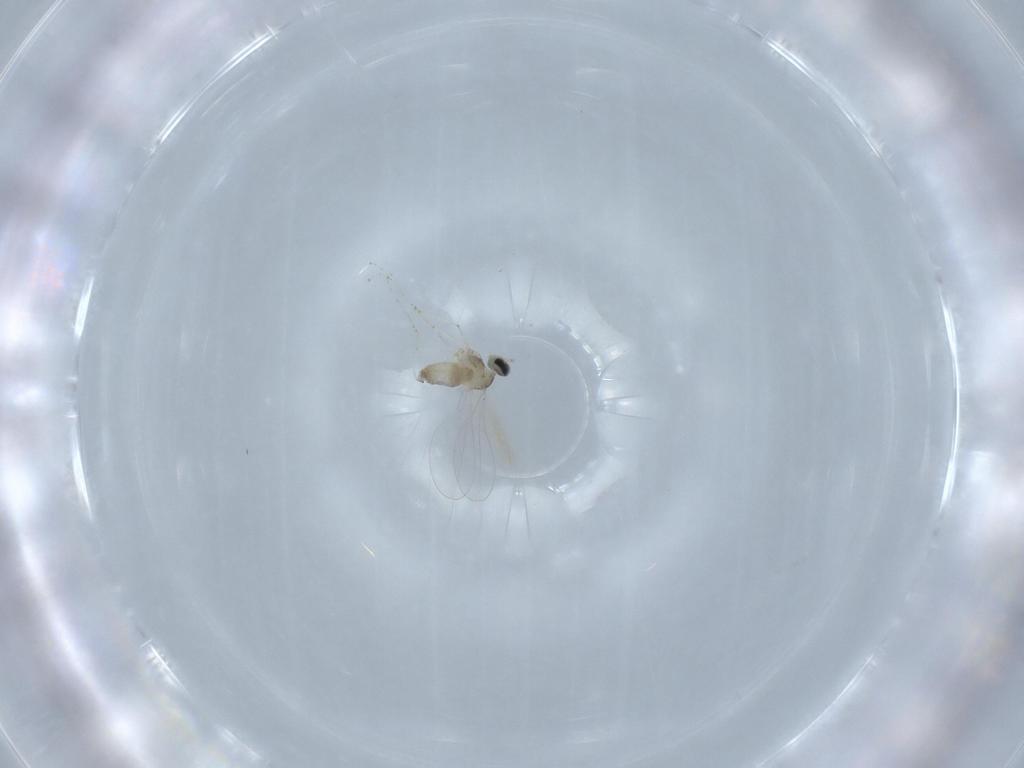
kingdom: Animalia
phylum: Arthropoda
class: Insecta
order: Diptera
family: Cecidomyiidae
